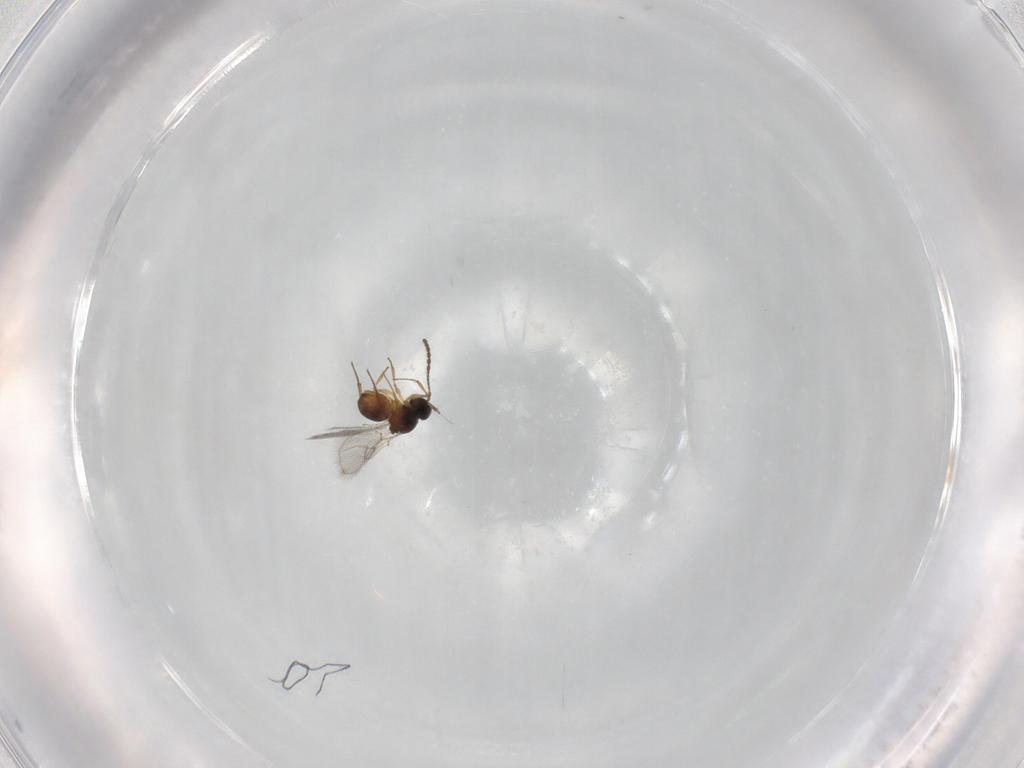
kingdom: Animalia
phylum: Arthropoda
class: Insecta
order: Hymenoptera
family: Figitidae
